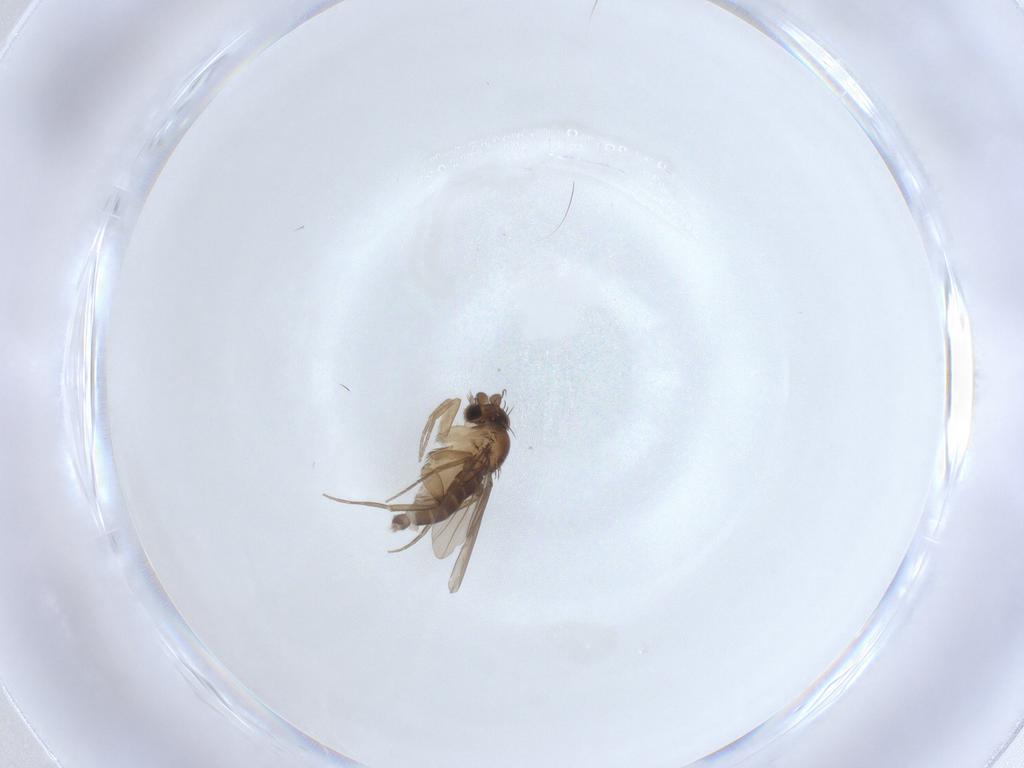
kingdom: Animalia
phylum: Arthropoda
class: Insecta
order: Diptera
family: Phoridae
